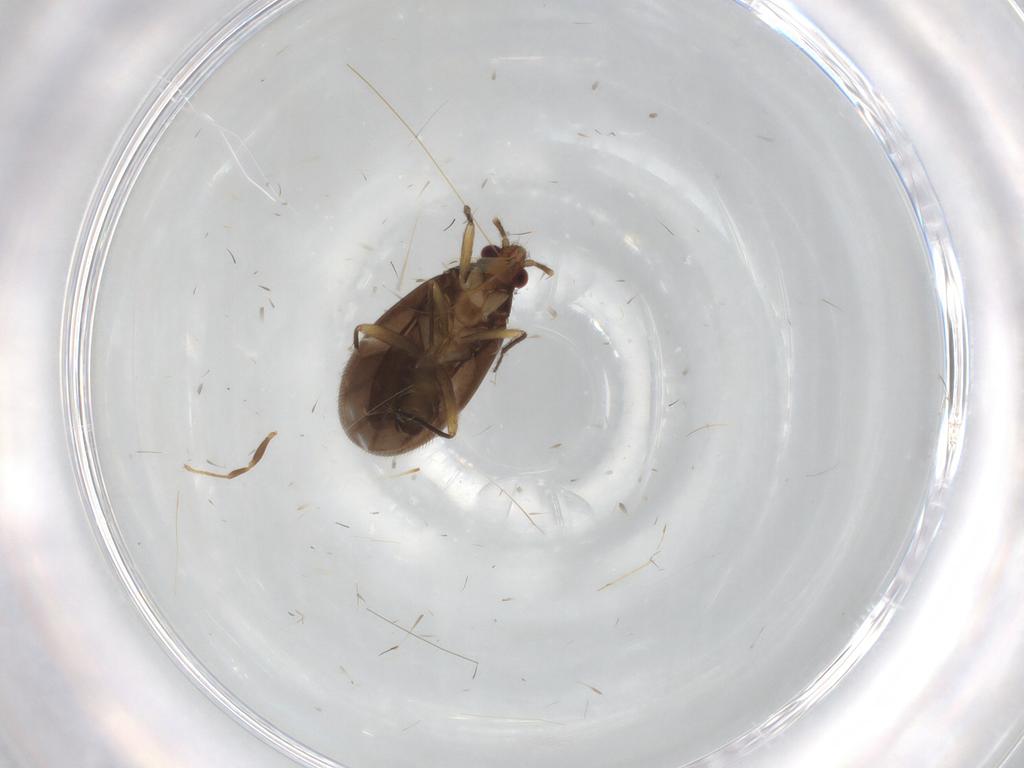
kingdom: Animalia
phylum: Arthropoda
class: Insecta
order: Hemiptera
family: Ceratocombidae
